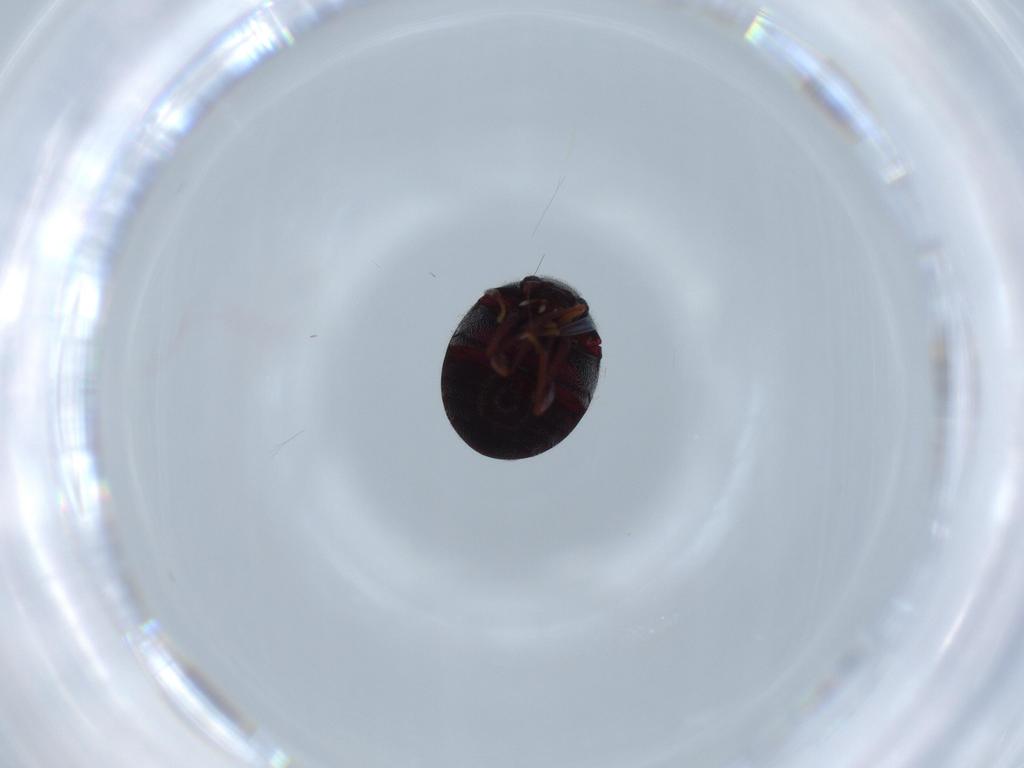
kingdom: Animalia
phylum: Arthropoda
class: Insecta
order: Coleoptera
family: Ptinidae
